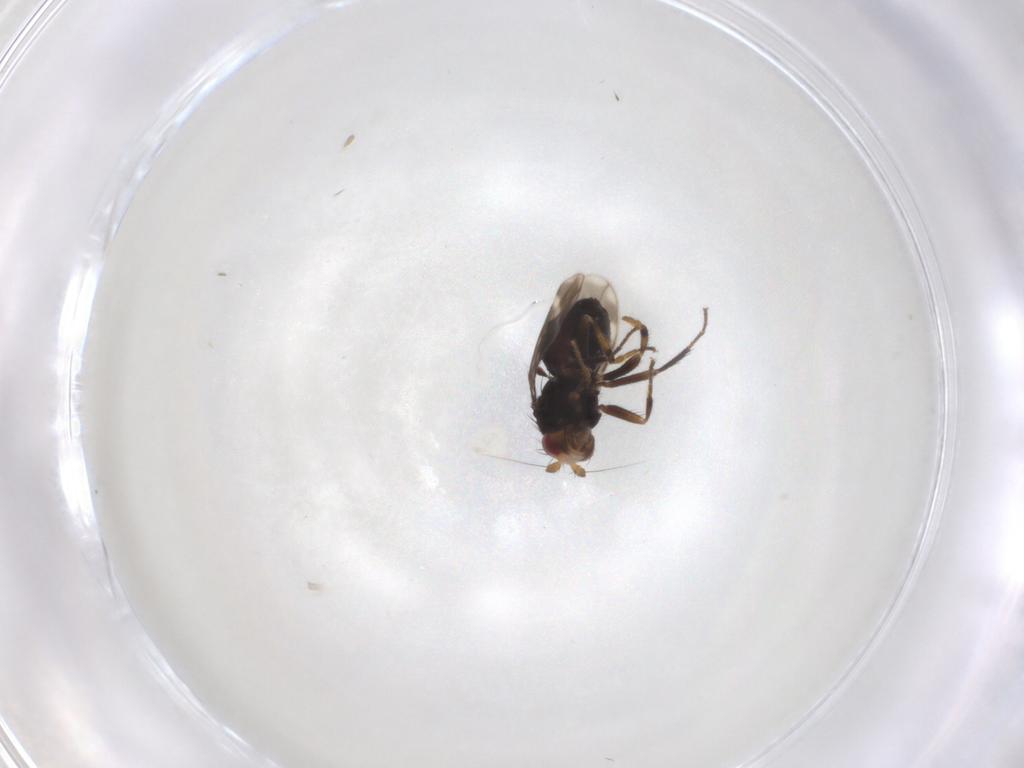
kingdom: Animalia
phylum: Arthropoda
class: Insecta
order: Diptera
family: Sphaeroceridae
